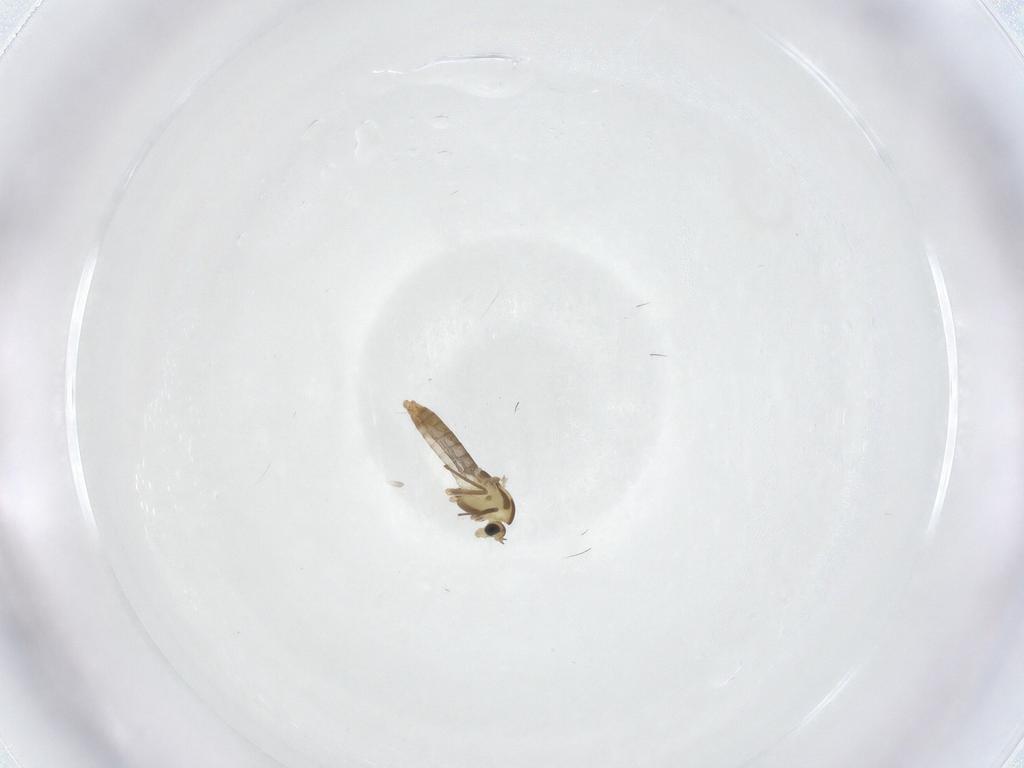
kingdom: Animalia
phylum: Arthropoda
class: Insecta
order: Diptera
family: Chironomidae
